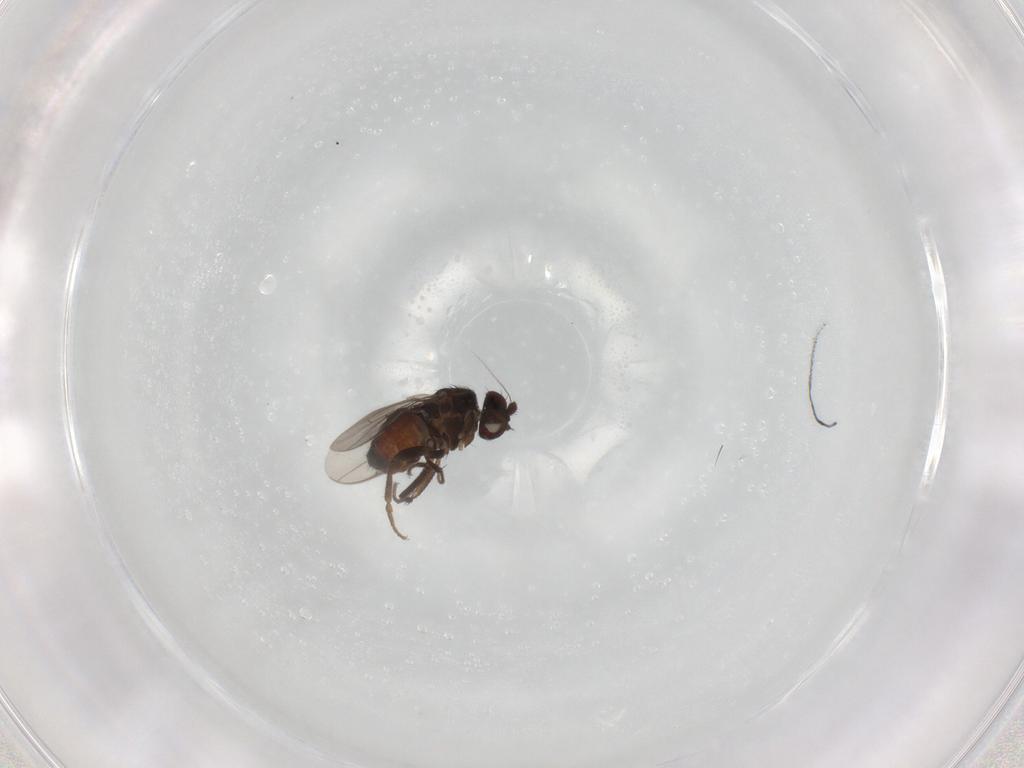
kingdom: Animalia
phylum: Arthropoda
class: Insecta
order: Diptera
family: Sphaeroceridae
